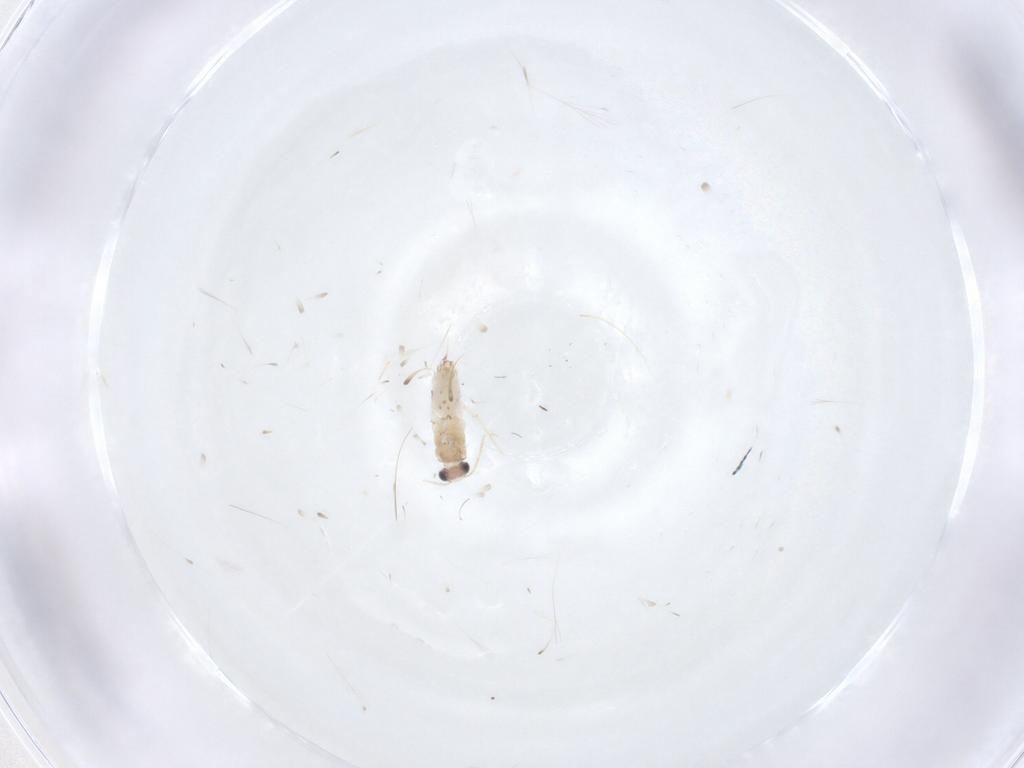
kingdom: Animalia
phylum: Arthropoda
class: Insecta
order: Lepidoptera
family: Nepticulidae
